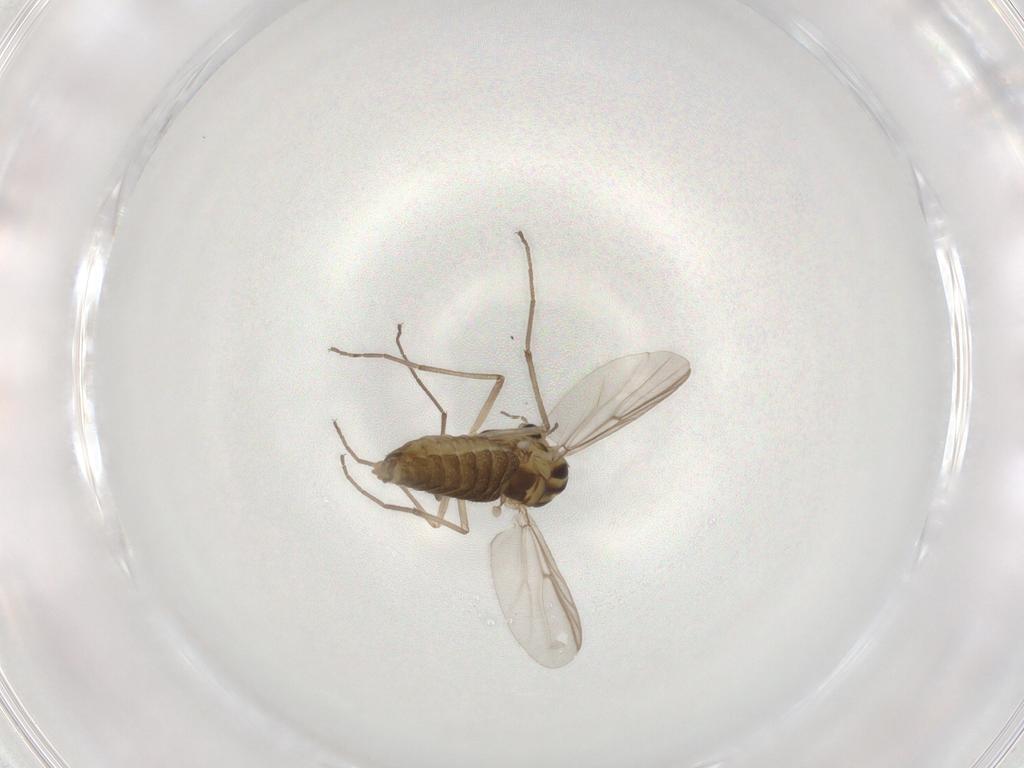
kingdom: Animalia
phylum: Arthropoda
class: Insecta
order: Diptera
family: Chironomidae
